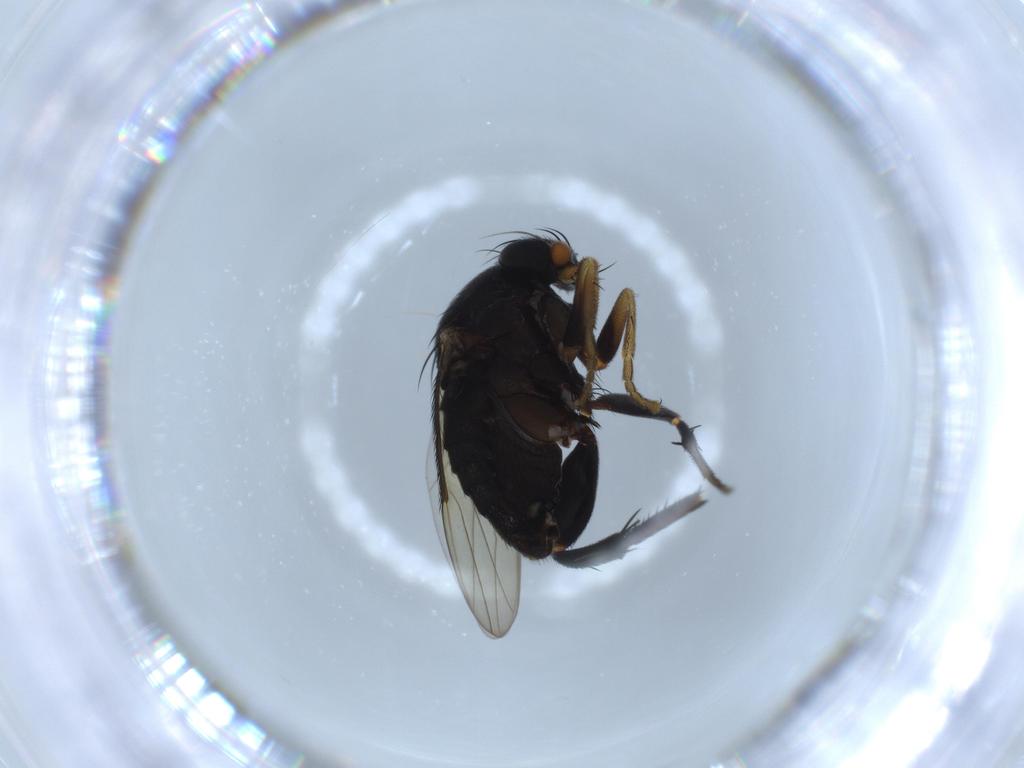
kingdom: Animalia
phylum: Arthropoda
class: Insecta
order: Diptera
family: Phoridae
